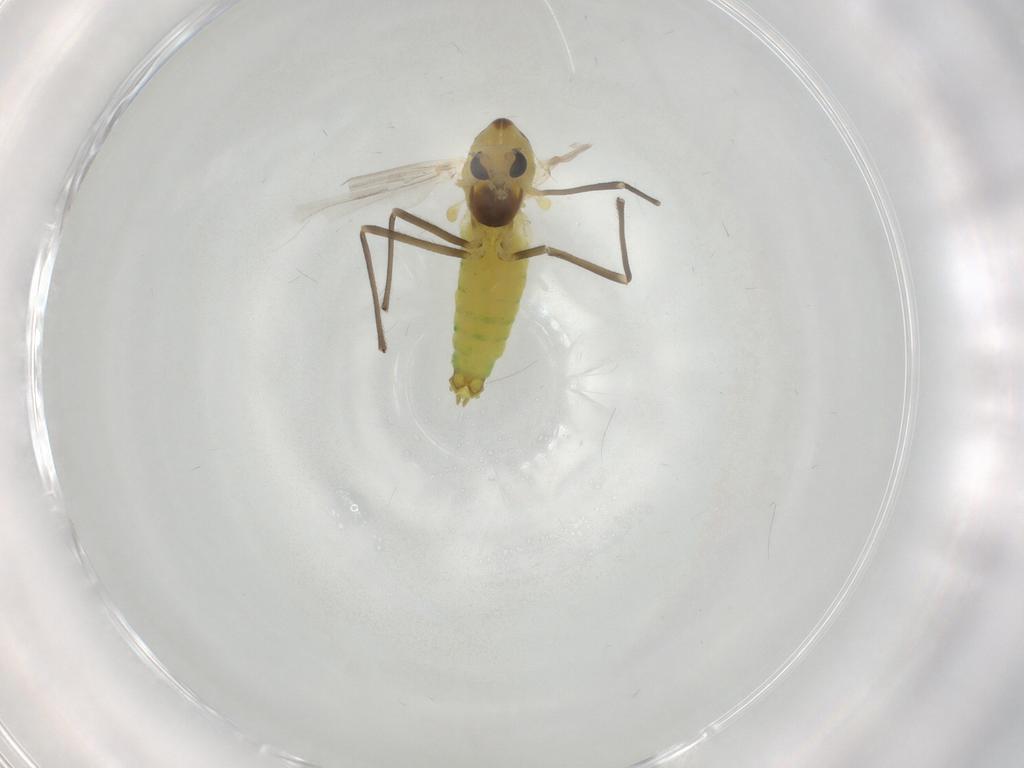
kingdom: Animalia
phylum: Arthropoda
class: Insecta
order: Diptera
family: Chironomidae
